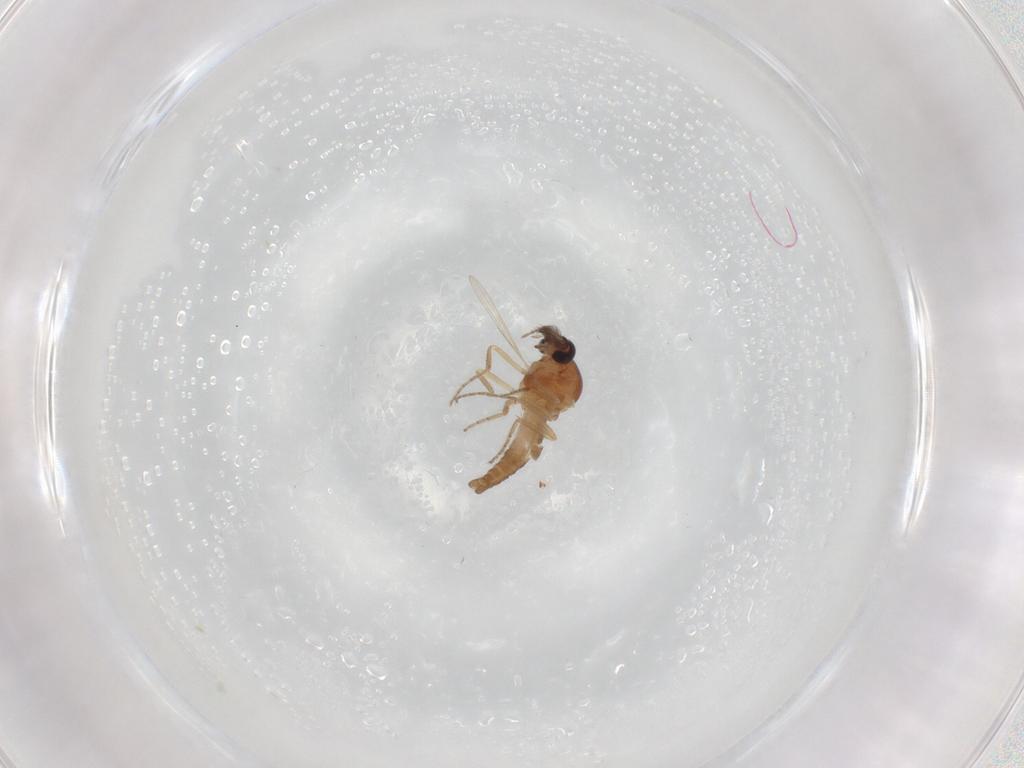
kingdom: Animalia
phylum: Arthropoda
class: Insecta
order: Diptera
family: Ceratopogonidae
